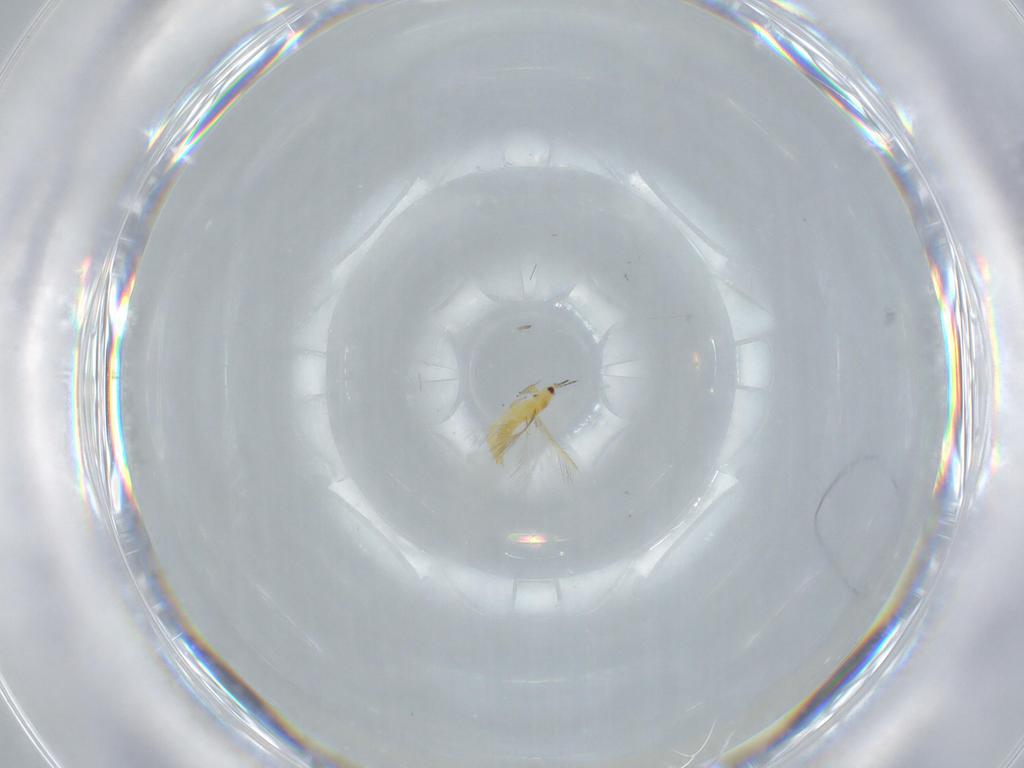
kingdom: Animalia
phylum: Arthropoda
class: Insecta
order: Thysanoptera
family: Thripidae
